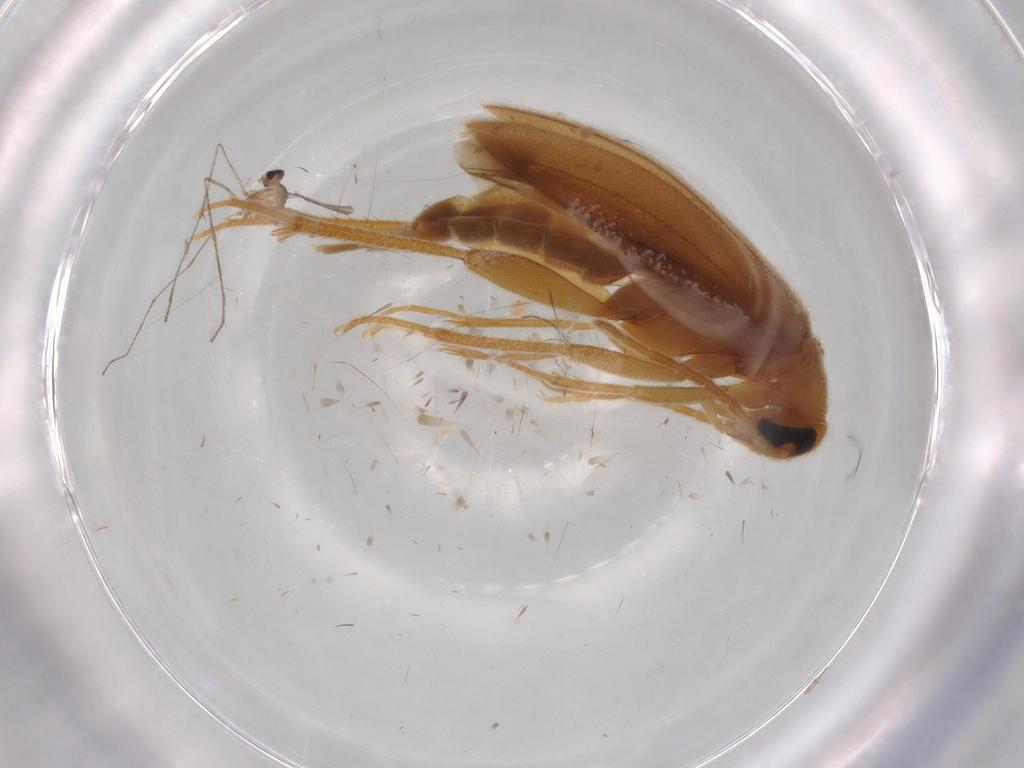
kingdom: Animalia
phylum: Arthropoda
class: Insecta
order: Coleoptera
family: Scraptiidae
